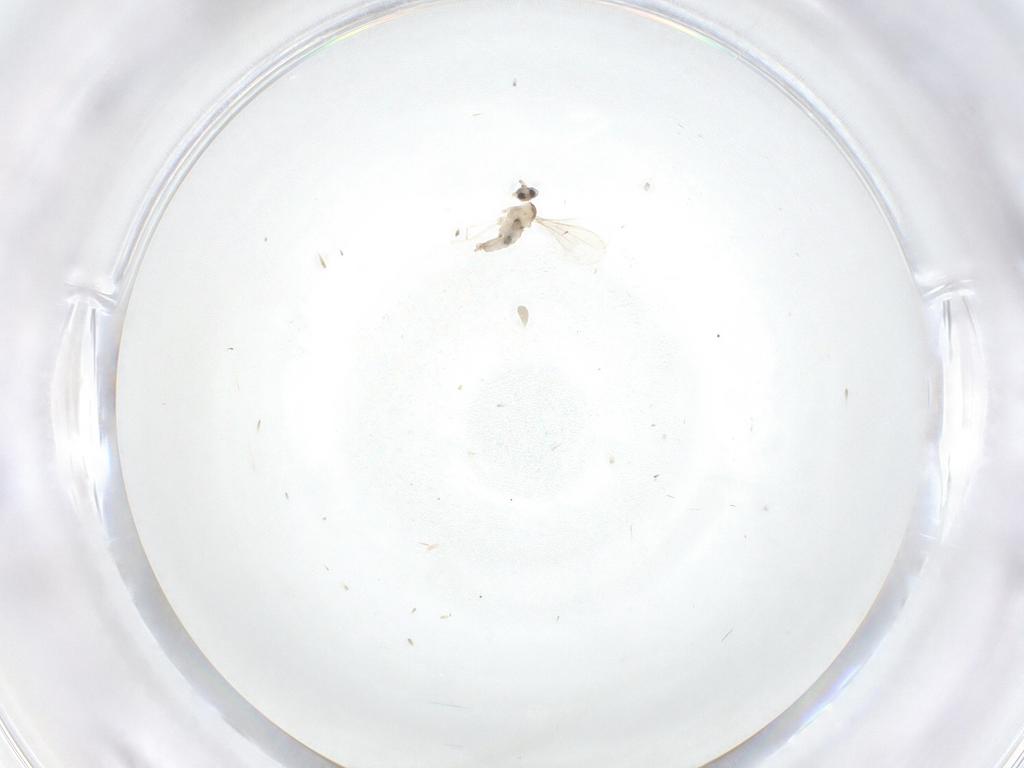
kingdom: Animalia
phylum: Arthropoda
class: Insecta
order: Diptera
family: Cecidomyiidae
